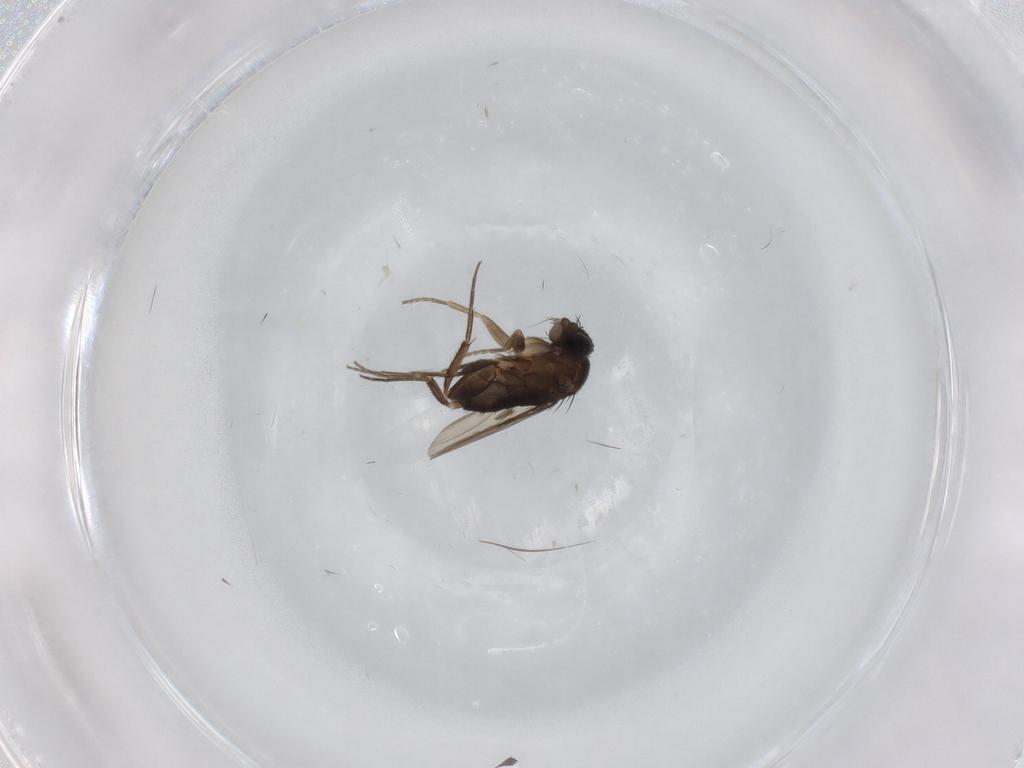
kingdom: Animalia
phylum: Arthropoda
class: Insecta
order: Diptera
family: Phoridae
